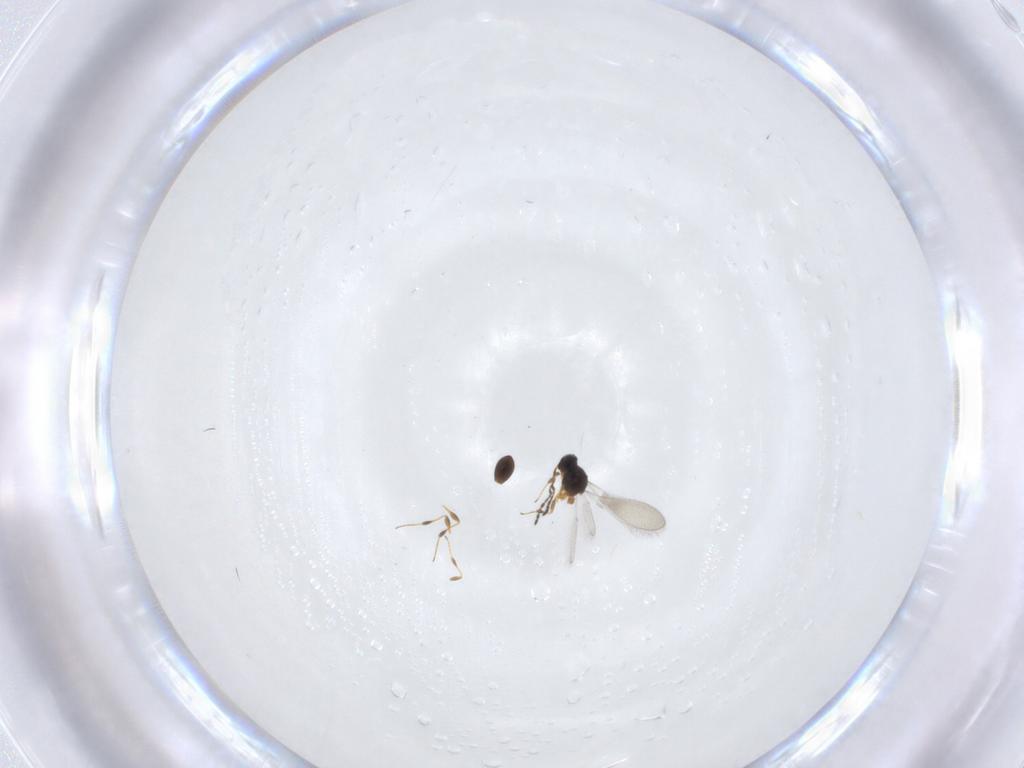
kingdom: Animalia
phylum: Arthropoda
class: Insecta
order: Hymenoptera
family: Platygastridae
